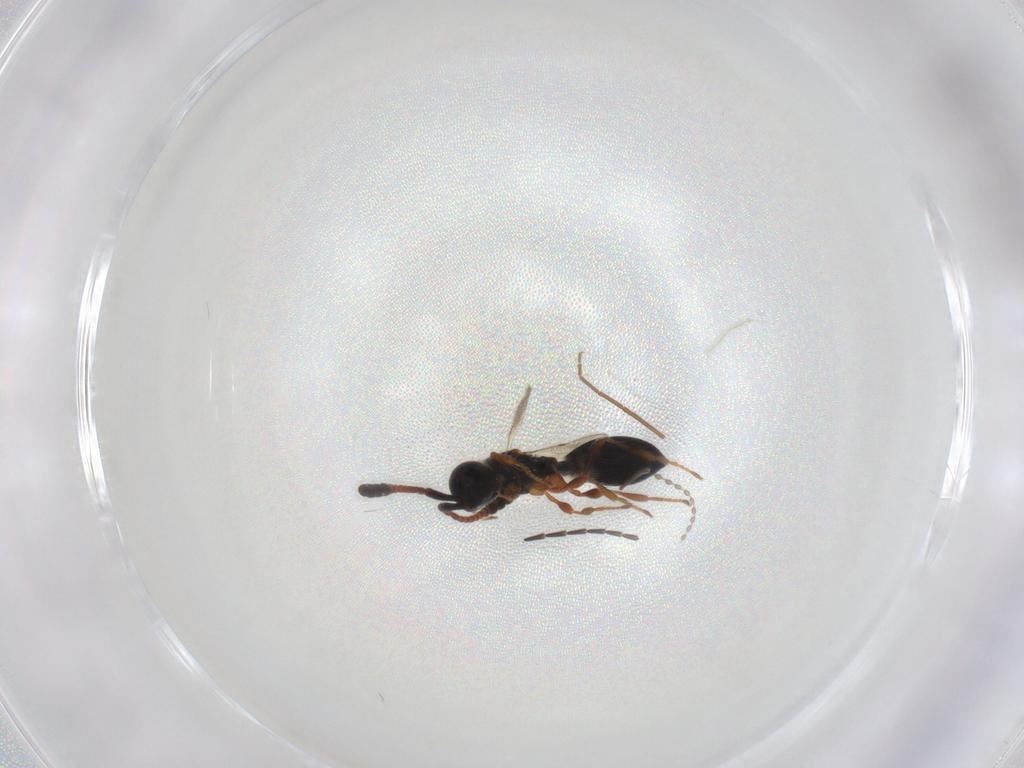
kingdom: Animalia
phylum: Arthropoda
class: Insecta
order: Hymenoptera
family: Diapriidae
